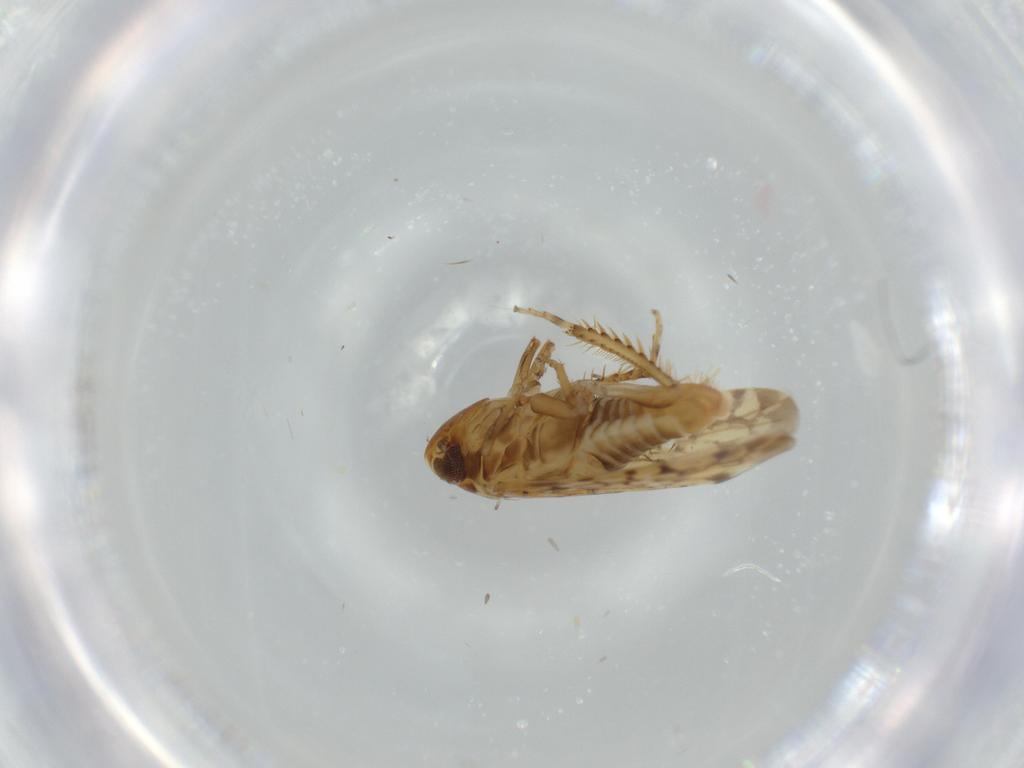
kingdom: Animalia
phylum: Arthropoda
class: Insecta
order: Hemiptera
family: Cicadellidae
